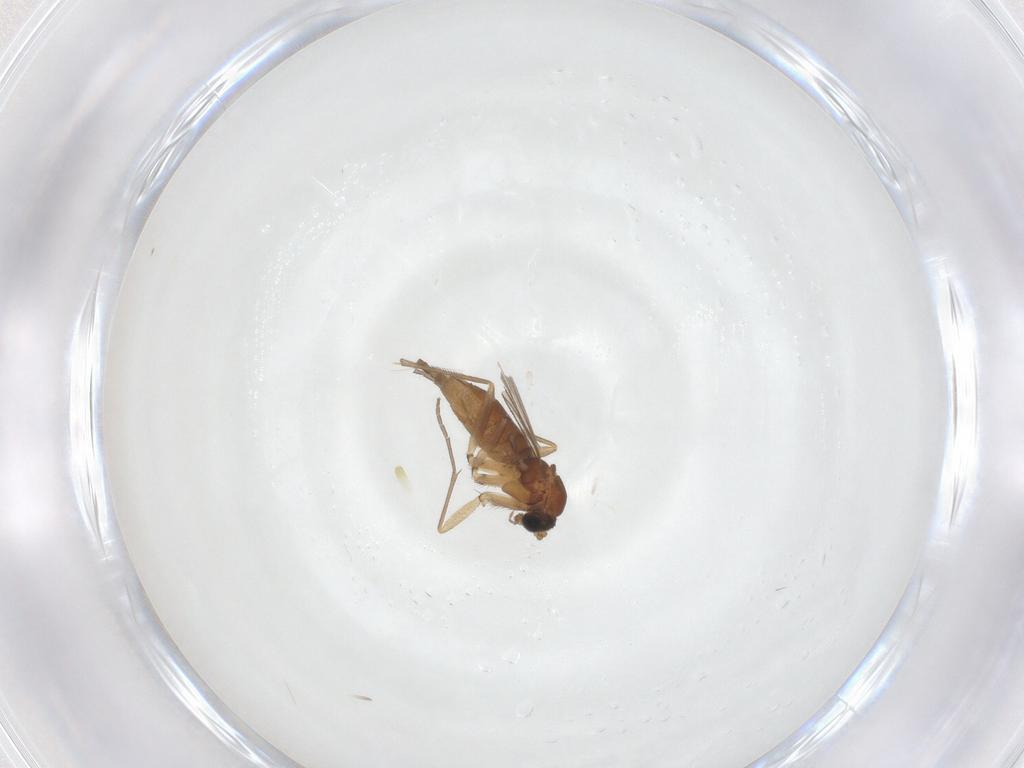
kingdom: Animalia
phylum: Arthropoda
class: Insecta
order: Diptera
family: Sciaridae
